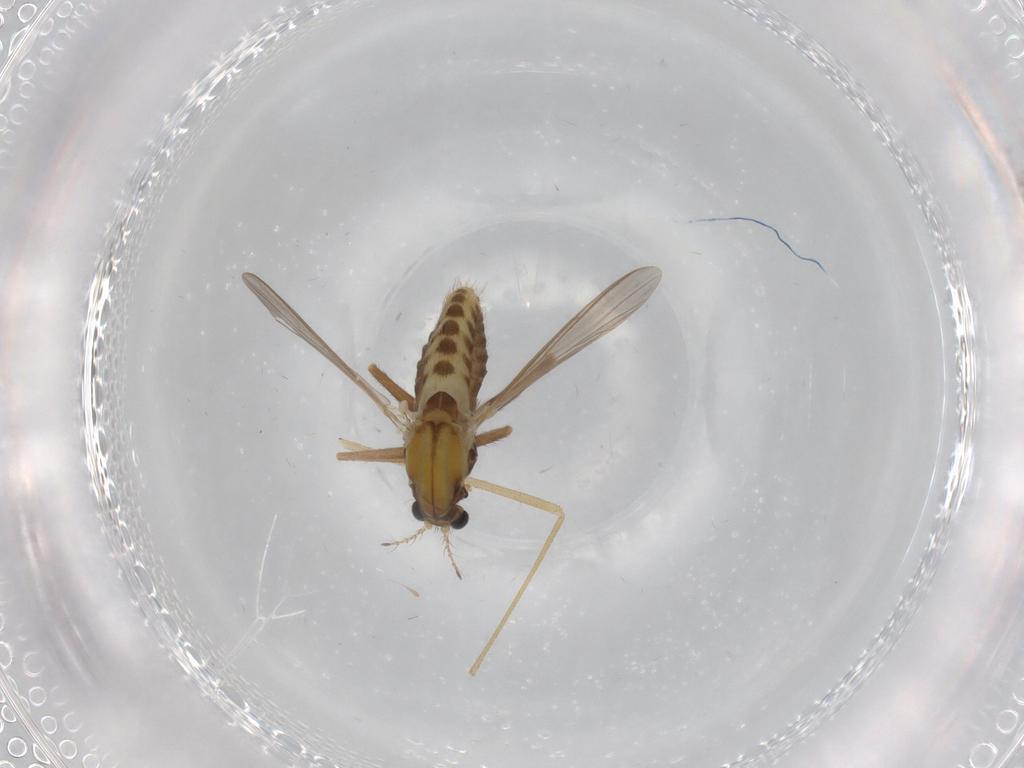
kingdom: Animalia
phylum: Arthropoda
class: Insecta
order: Diptera
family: Chironomidae
